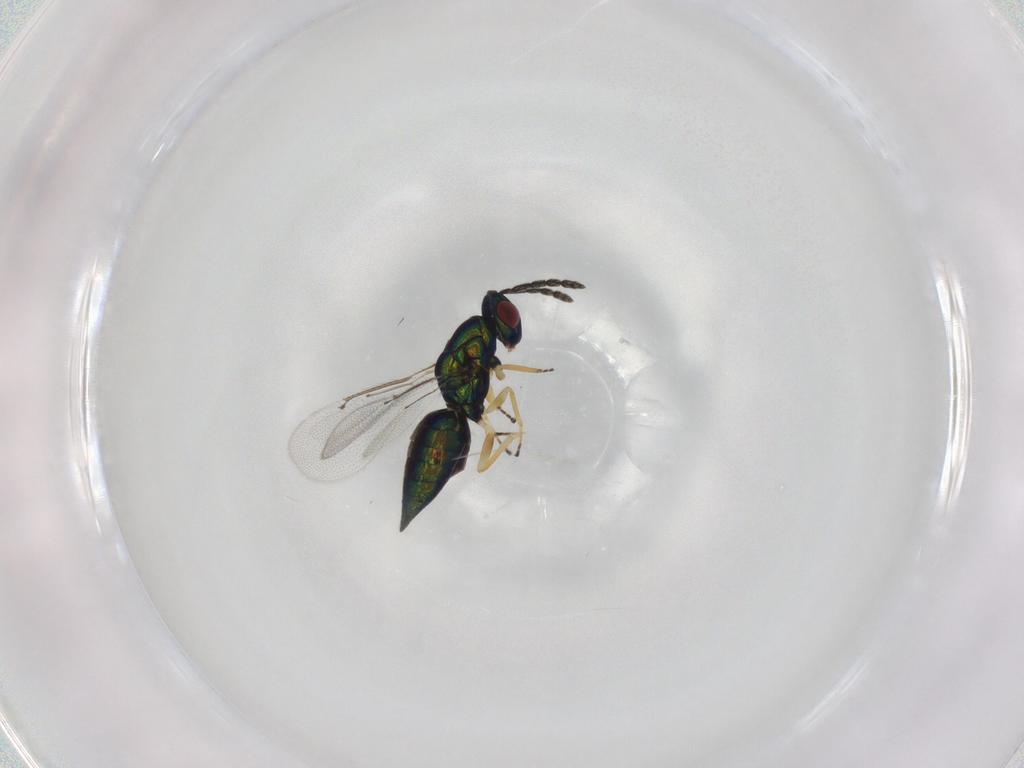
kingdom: Animalia
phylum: Arthropoda
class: Insecta
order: Hymenoptera
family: Eulophidae
